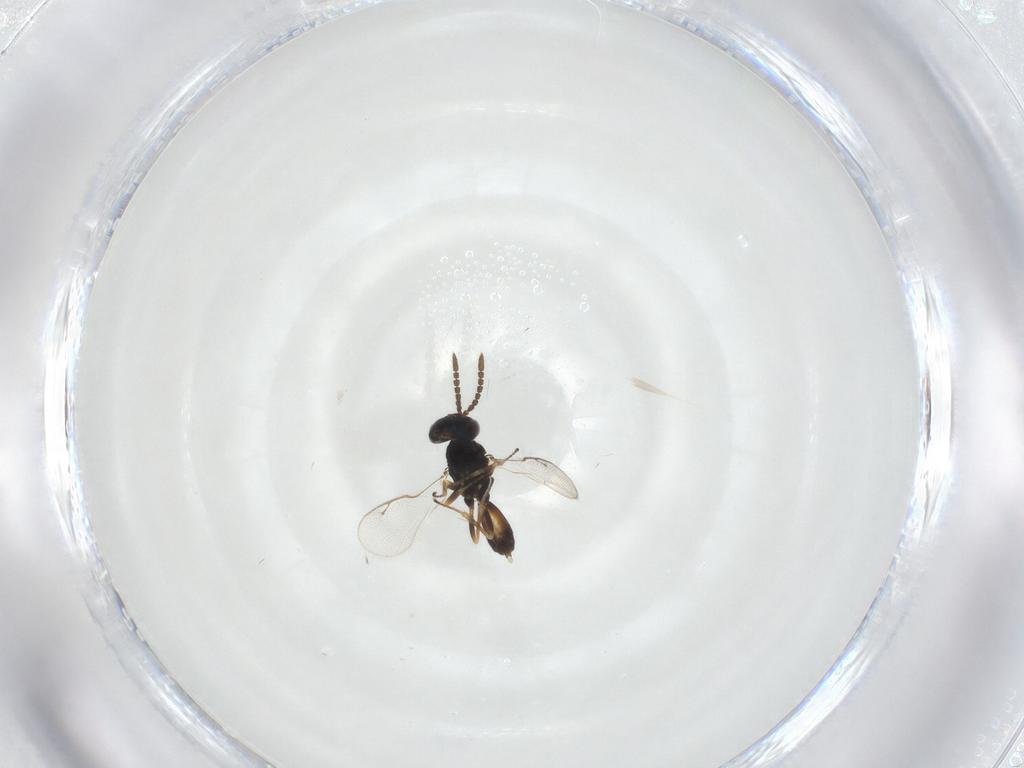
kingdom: Animalia
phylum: Arthropoda
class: Insecta
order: Hymenoptera
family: Pteromalidae
